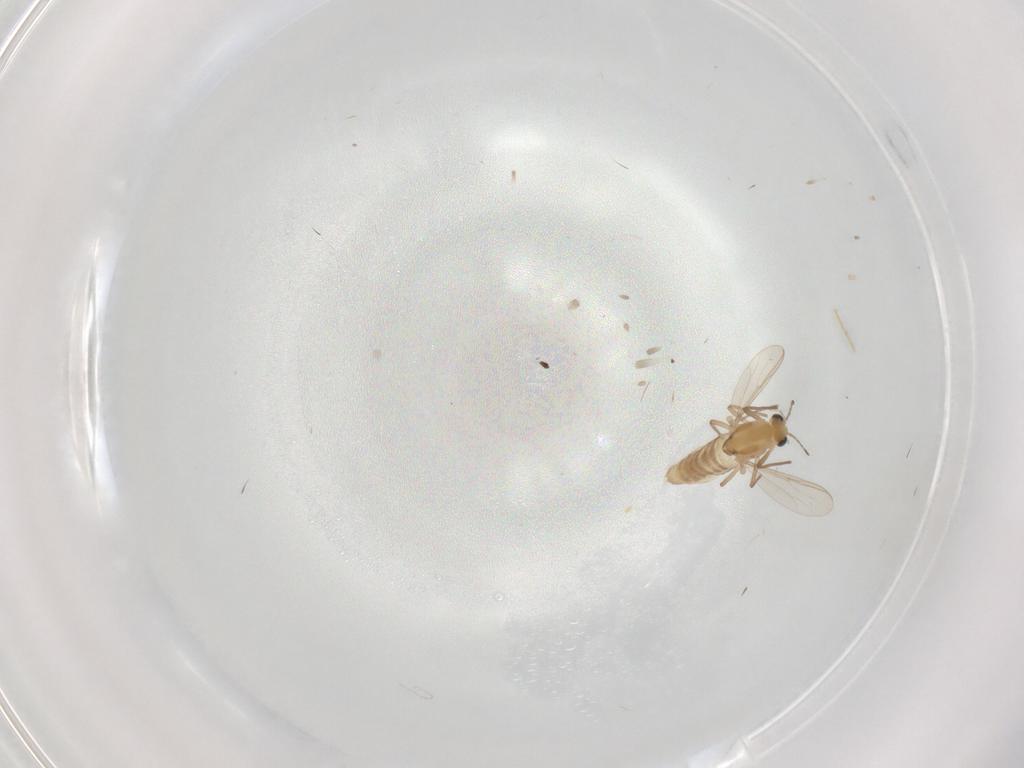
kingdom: Animalia
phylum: Arthropoda
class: Insecta
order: Diptera
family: Chironomidae
